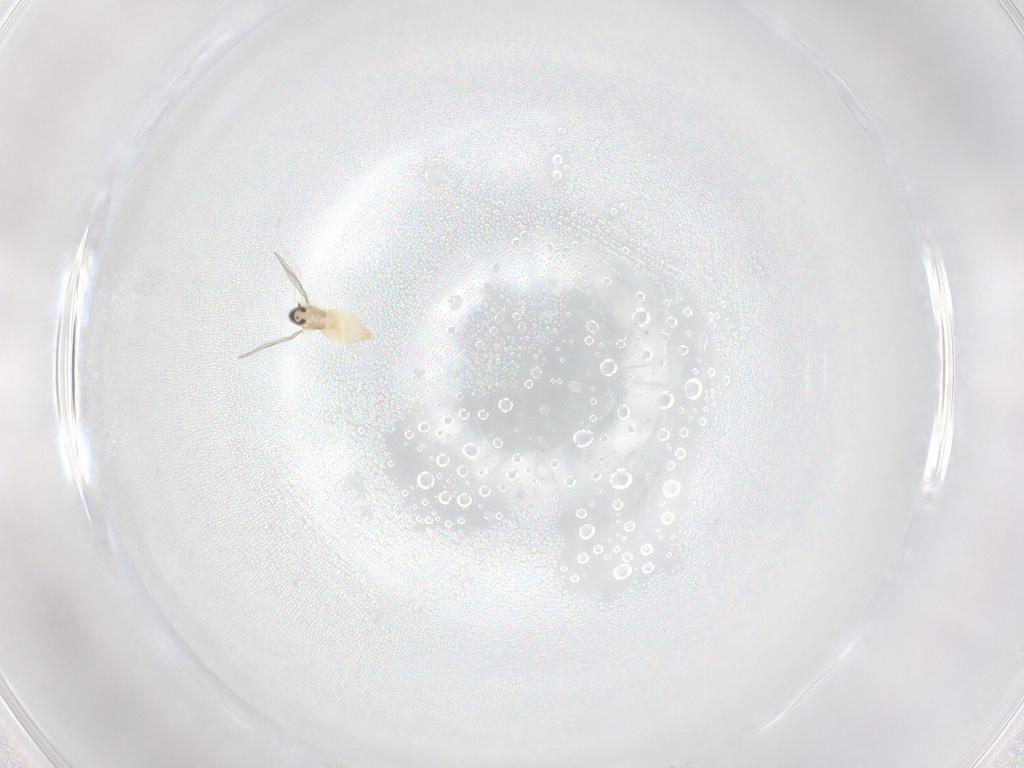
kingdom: Animalia
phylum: Arthropoda
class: Insecta
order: Diptera
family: Cecidomyiidae
